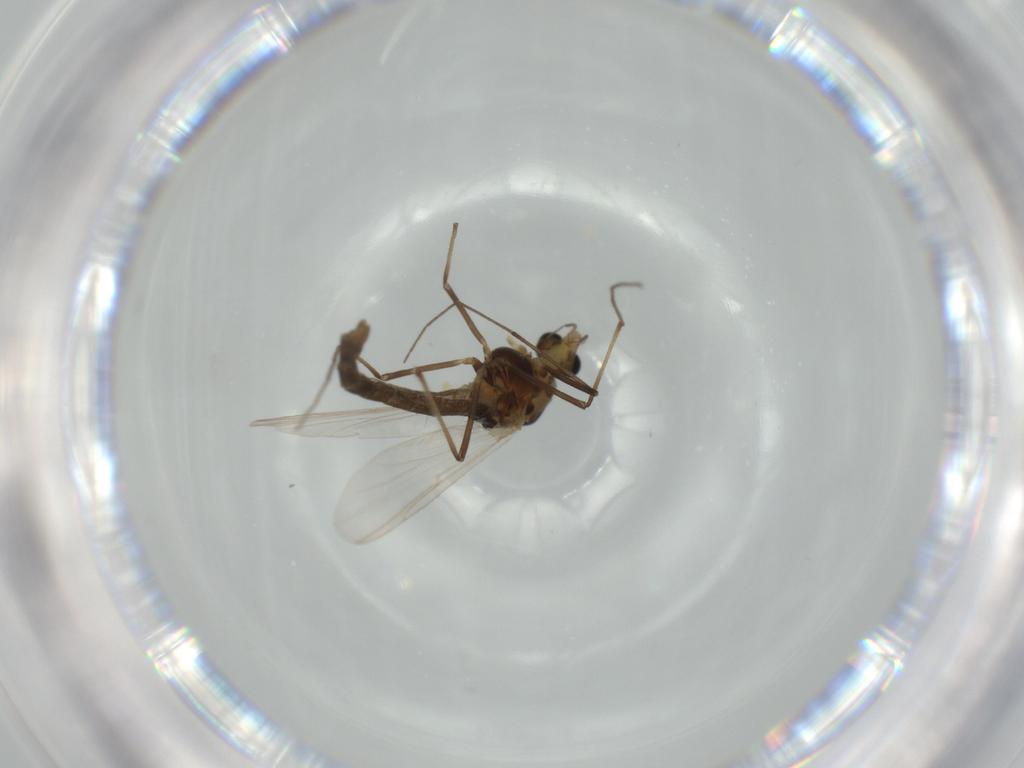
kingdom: Animalia
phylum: Arthropoda
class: Insecta
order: Diptera
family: Chironomidae
